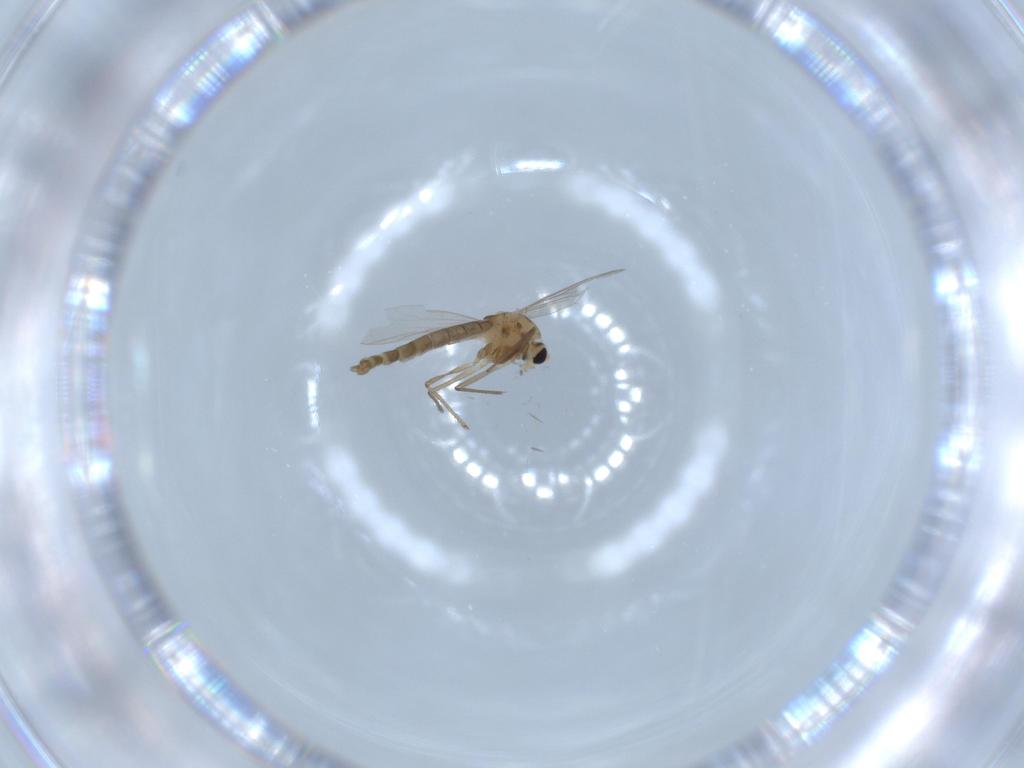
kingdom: Animalia
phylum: Arthropoda
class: Insecta
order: Diptera
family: Chironomidae
